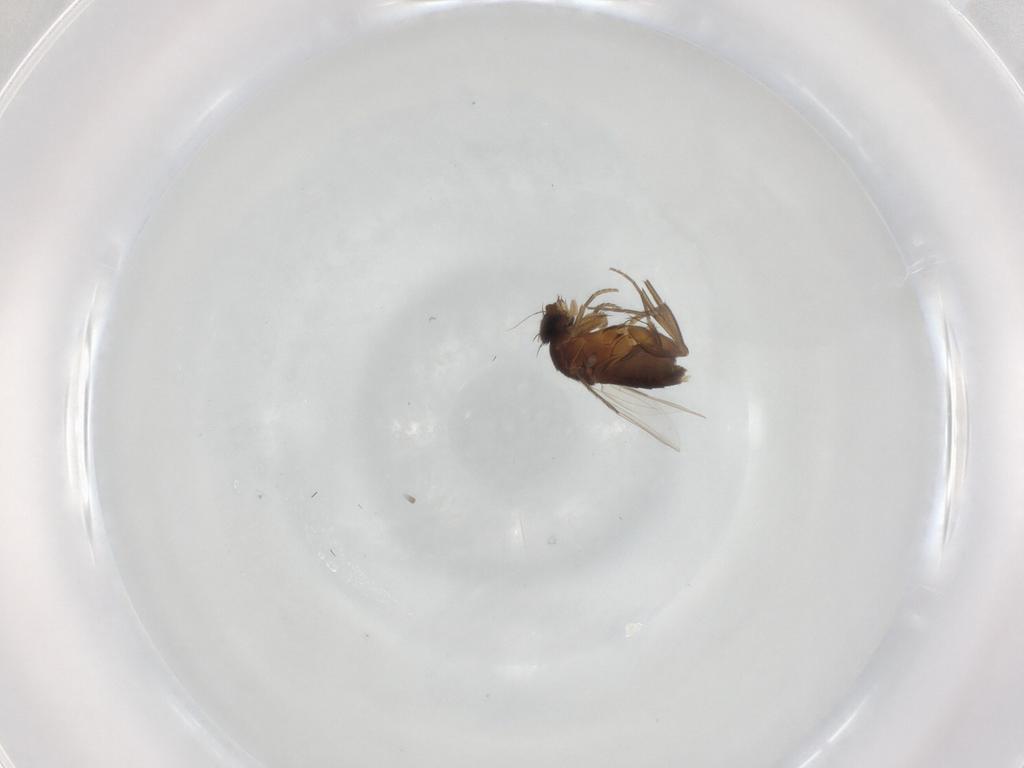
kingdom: Animalia
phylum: Arthropoda
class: Insecta
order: Diptera
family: Phoridae
